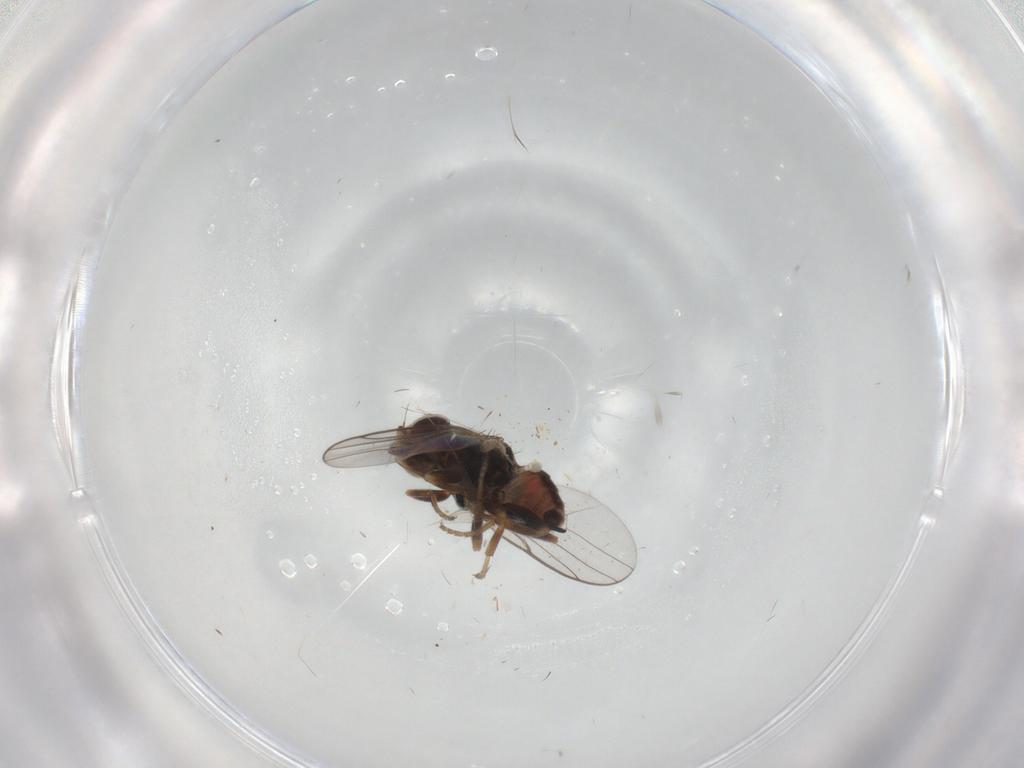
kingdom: Animalia
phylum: Arthropoda
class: Insecta
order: Diptera
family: Chloropidae
